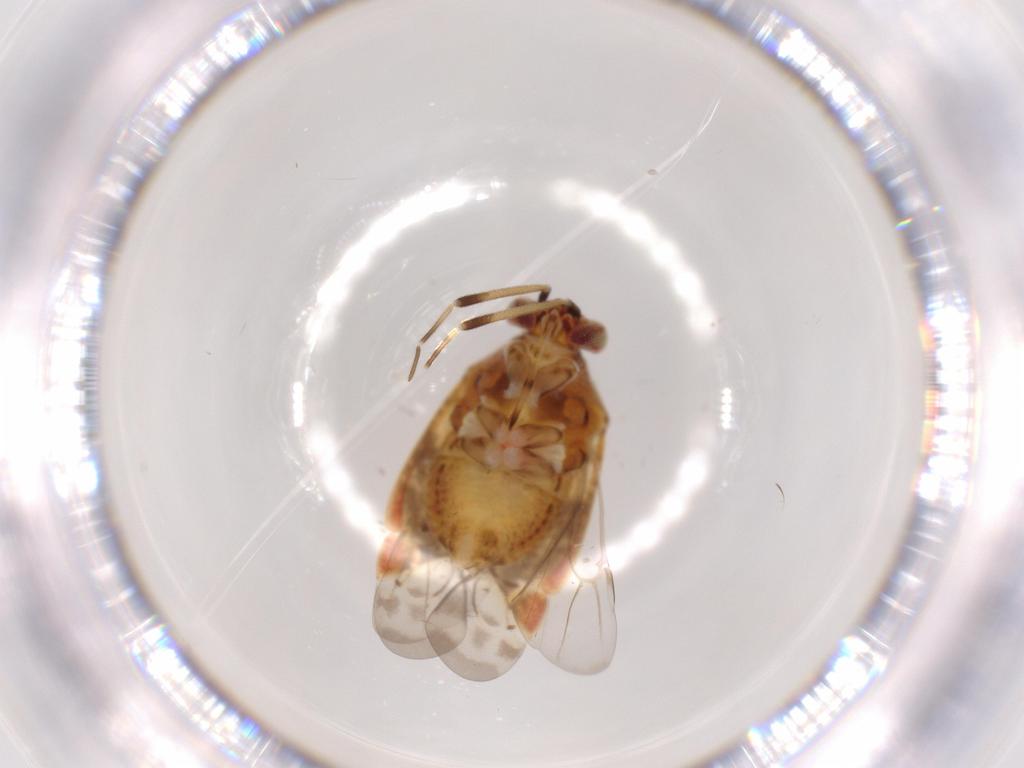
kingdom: Animalia
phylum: Arthropoda
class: Insecta
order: Hemiptera
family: Miridae
